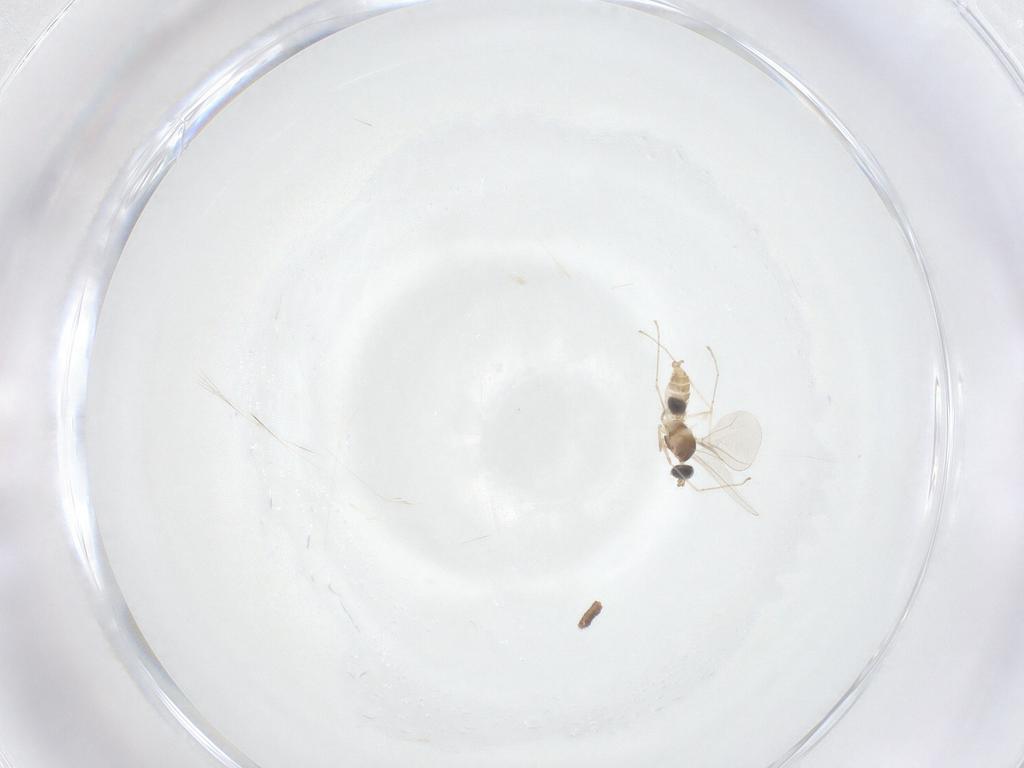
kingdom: Animalia
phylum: Arthropoda
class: Insecta
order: Diptera
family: Cecidomyiidae
